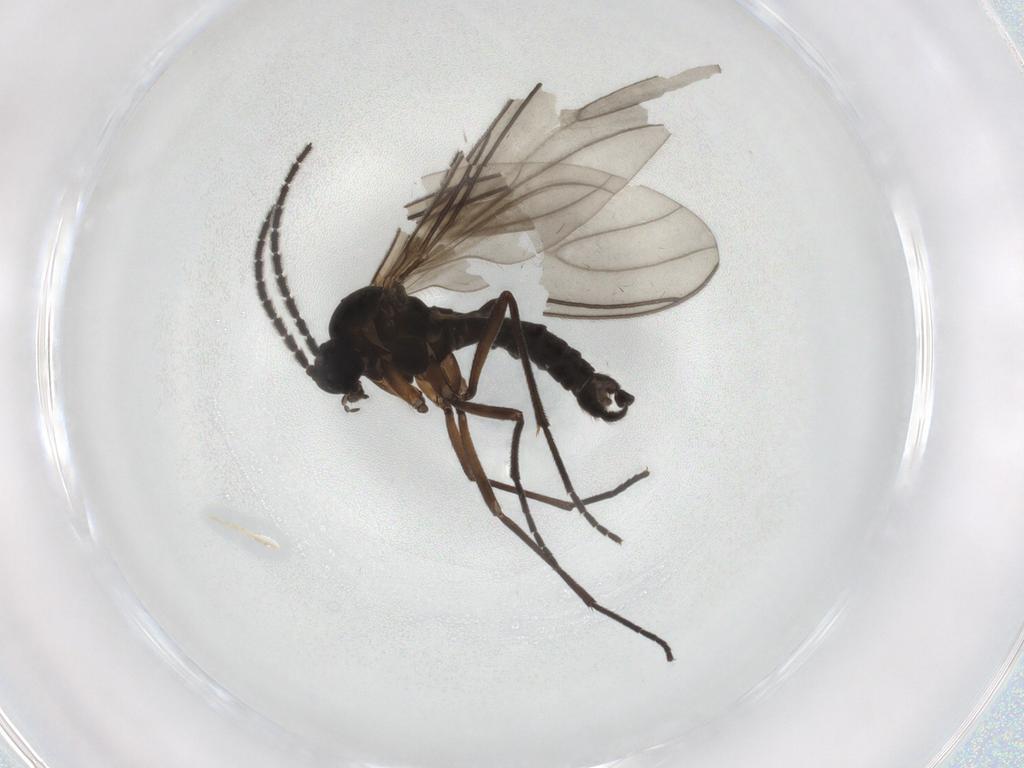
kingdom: Animalia
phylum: Arthropoda
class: Insecta
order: Diptera
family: Sciaridae
